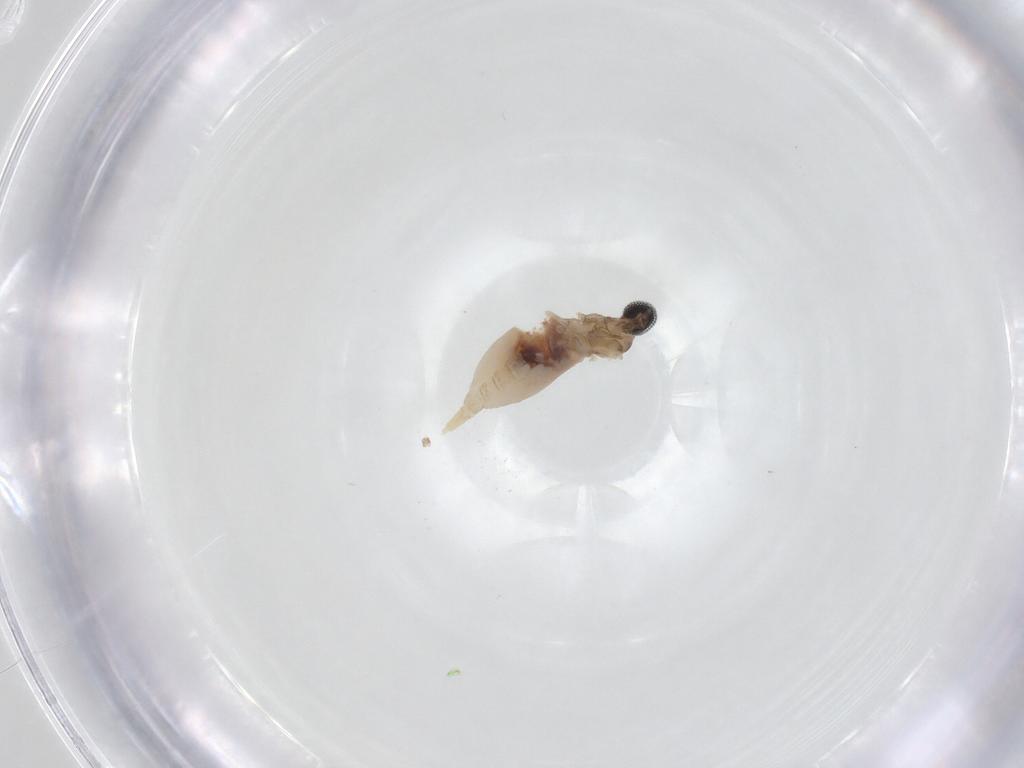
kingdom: Animalia
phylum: Arthropoda
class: Insecta
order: Diptera
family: Cecidomyiidae
